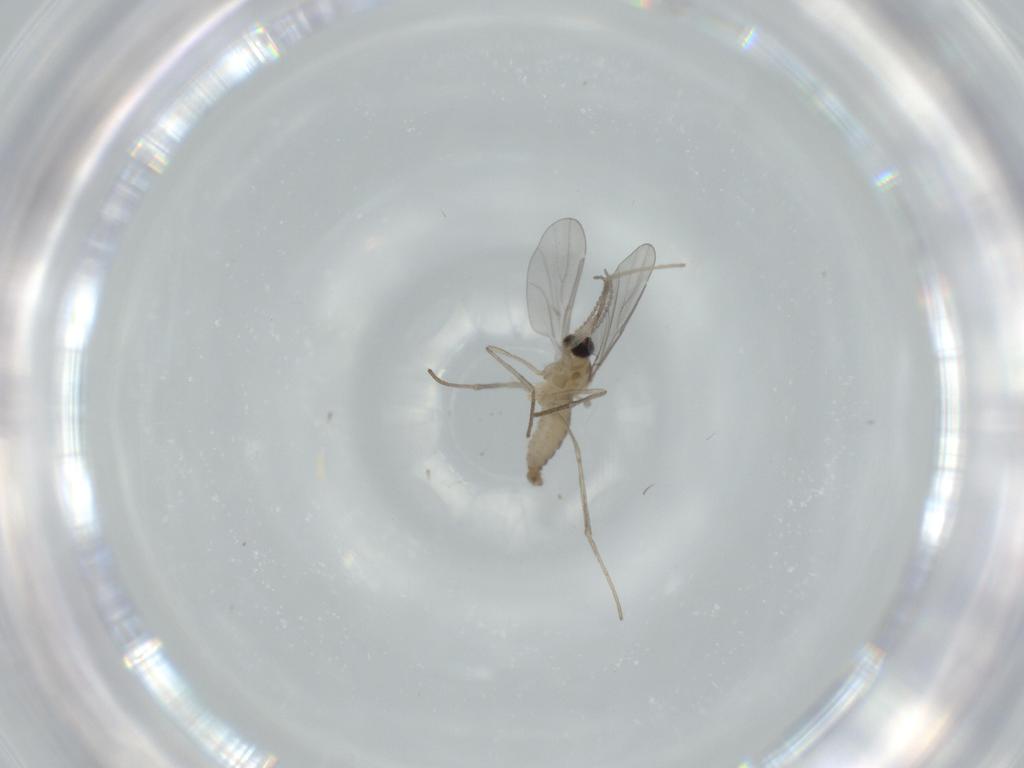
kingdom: Animalia
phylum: Arthropoda
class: Insecta
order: Diptera
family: Cecidomyiidae
